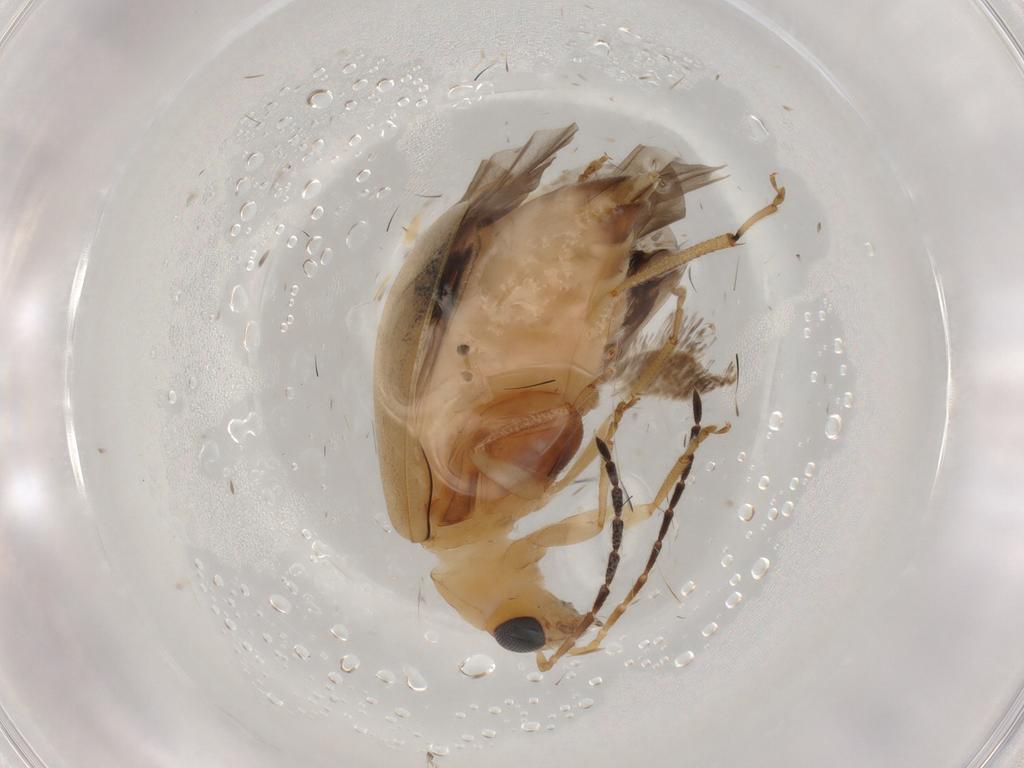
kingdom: Animalia
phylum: Arthropoda
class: Insecta
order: Coleoptera
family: Chrysomelidae
